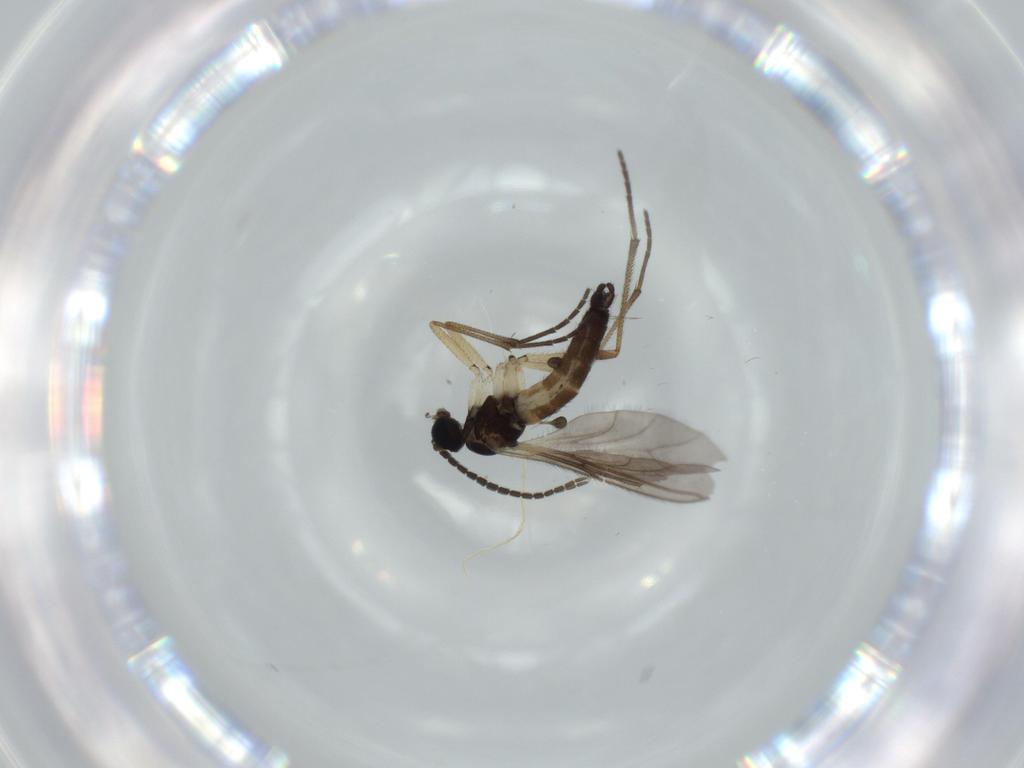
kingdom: Animalia
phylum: Arthropoda
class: Insecta
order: Diptera
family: Sciaridae
